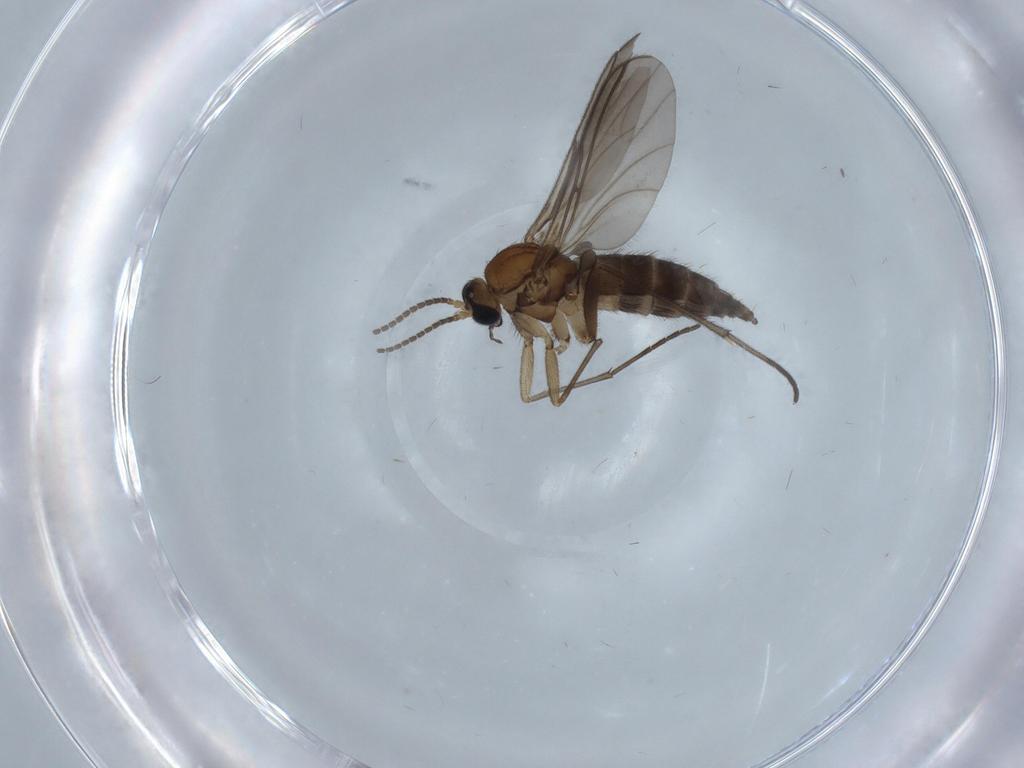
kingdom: Animalia
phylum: Arthropoda
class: Insecta
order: Diptera
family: Sciaridae
